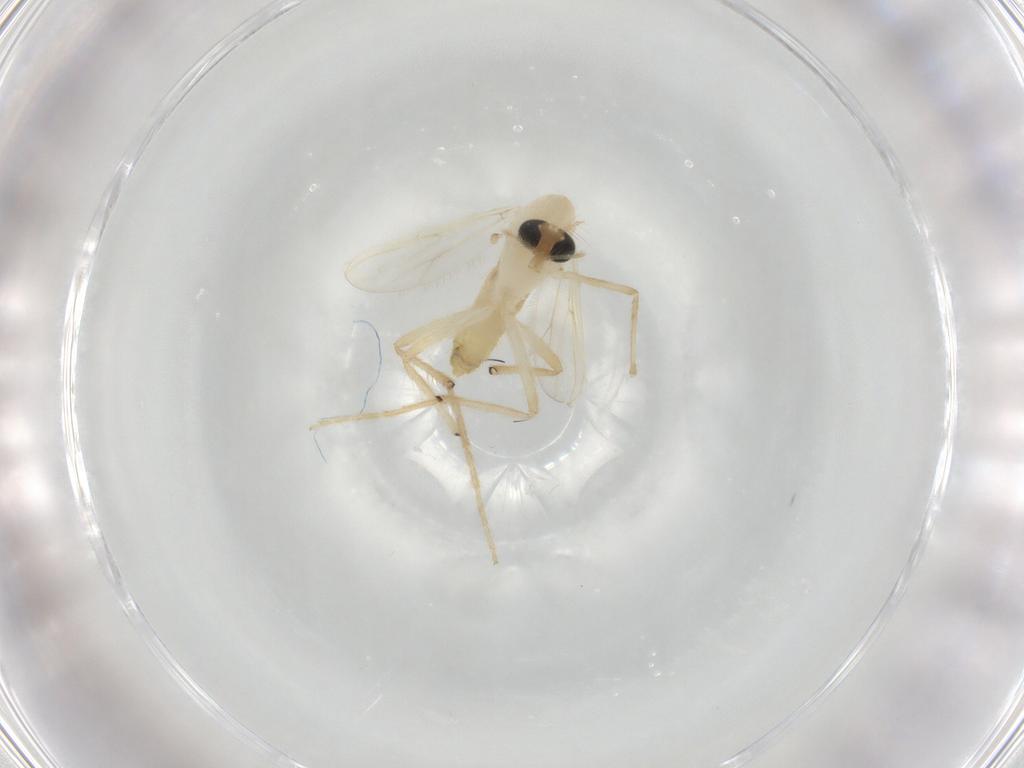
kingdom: Animalia
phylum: Arthropoda
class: Insecta
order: Diptera
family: Chironomidae
